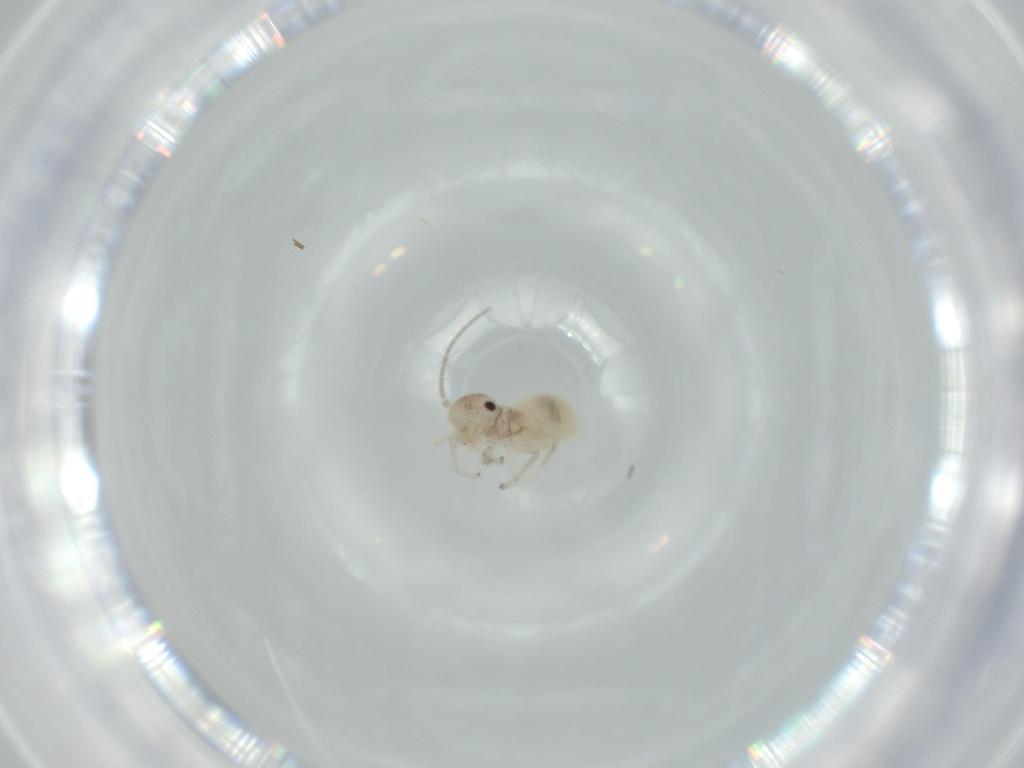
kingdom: Animalia
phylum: Arthropoda
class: Insecta
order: Psocodea
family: Amphipsocidae
